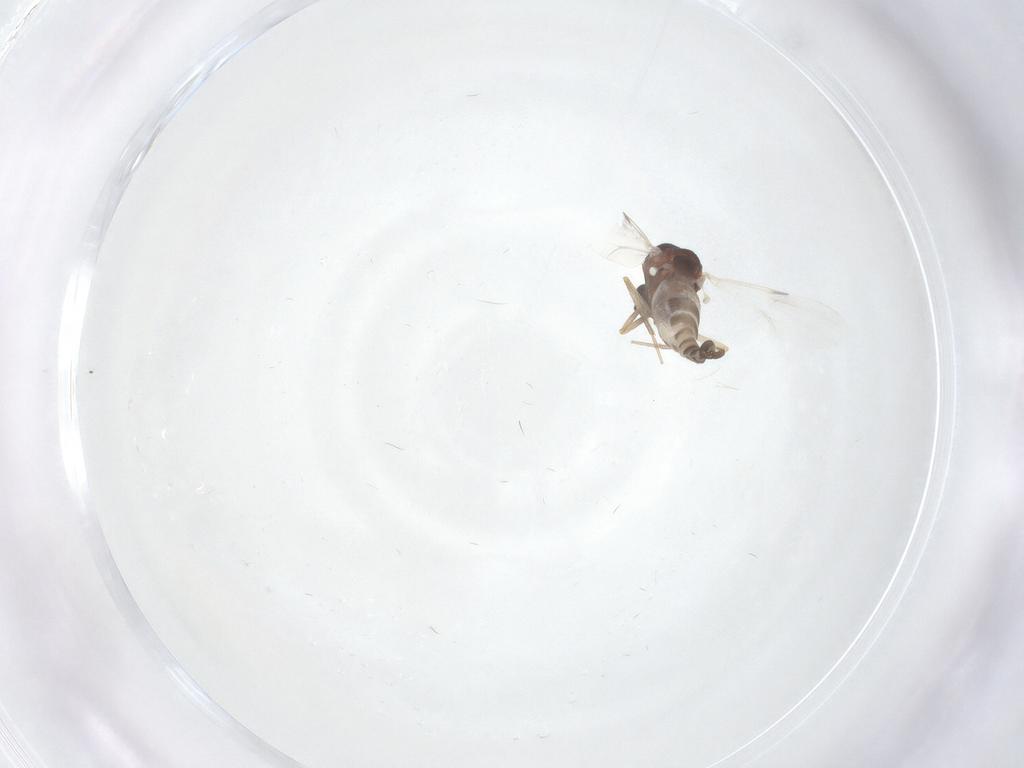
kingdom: Animalia
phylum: Arthropoda
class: Insecta
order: Diptera
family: Ceratopogonidae
